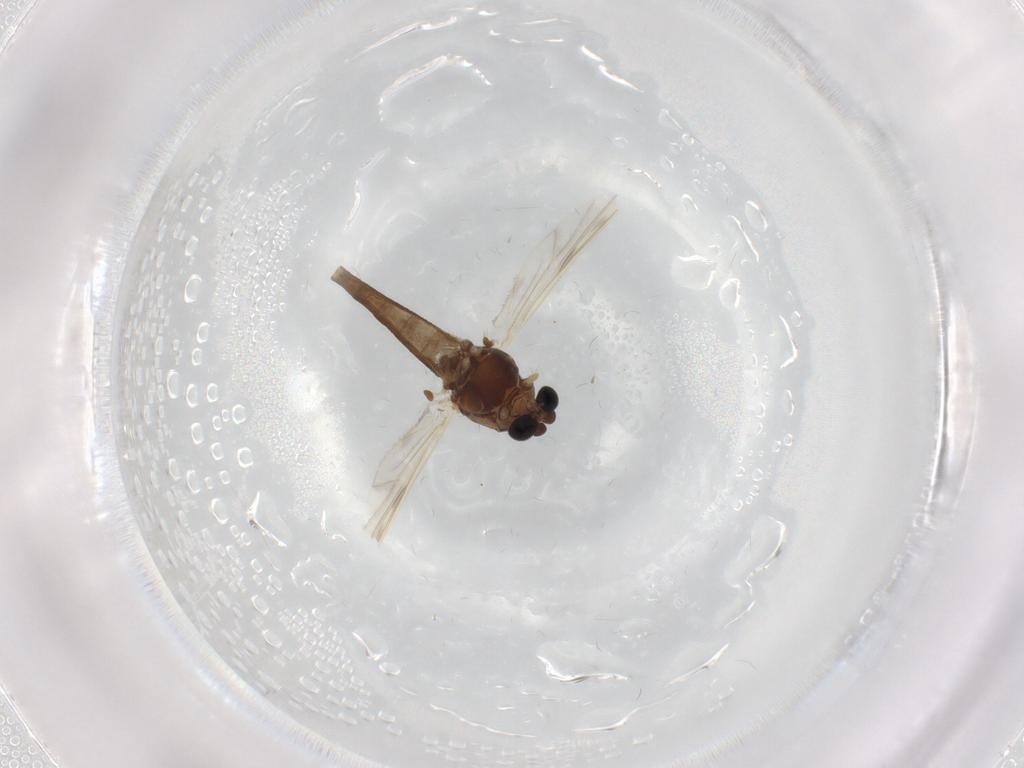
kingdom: Animalia
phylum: Arthropoda
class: Insecta
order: Diptera
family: Chironomidae
